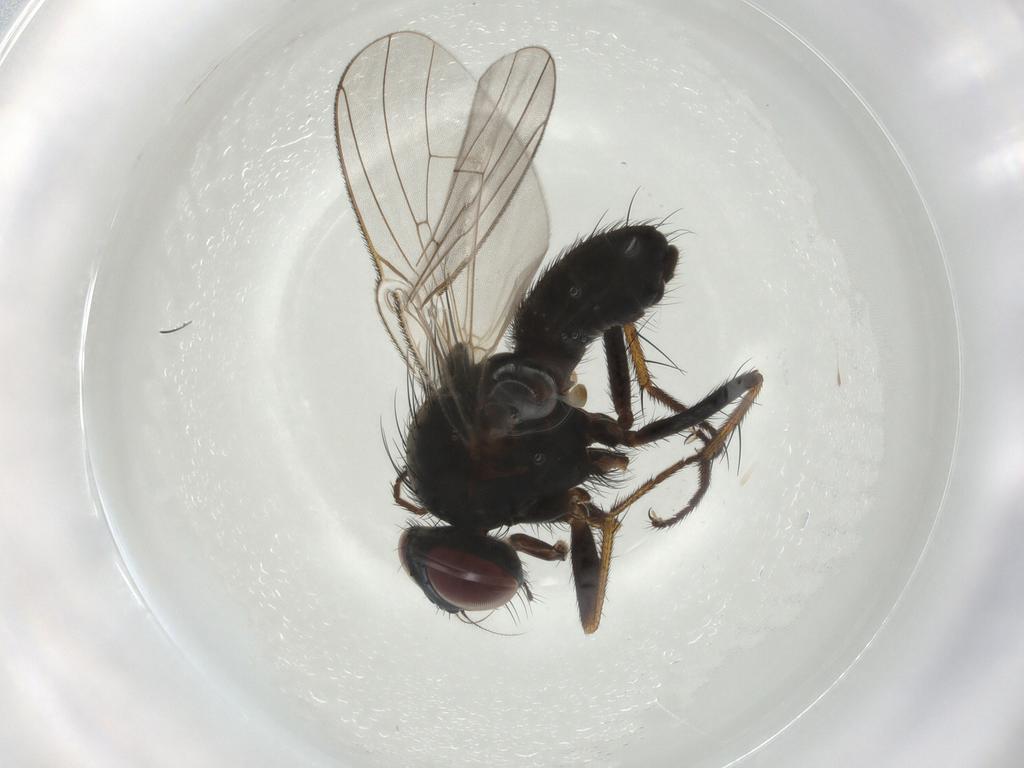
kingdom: Animalia
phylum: Arthropoda
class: Insecta
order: Diptera
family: Muscidae
